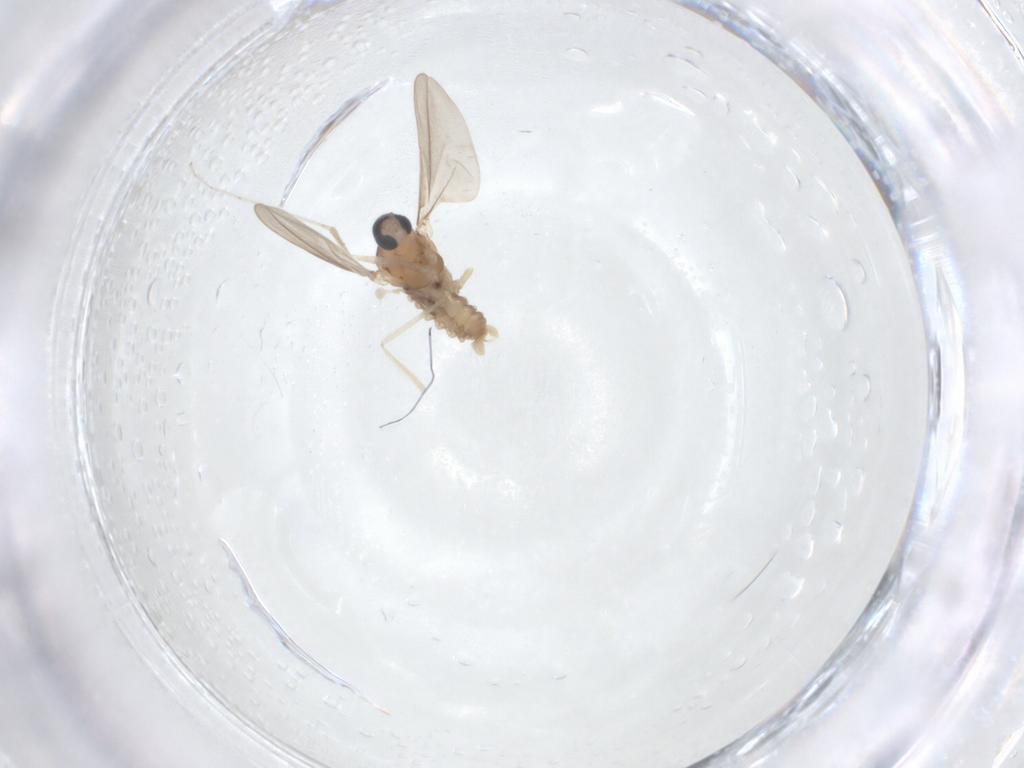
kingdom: Animalia
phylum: Arthropoda
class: Insecta
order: Diptera
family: Cecidomyiidae
